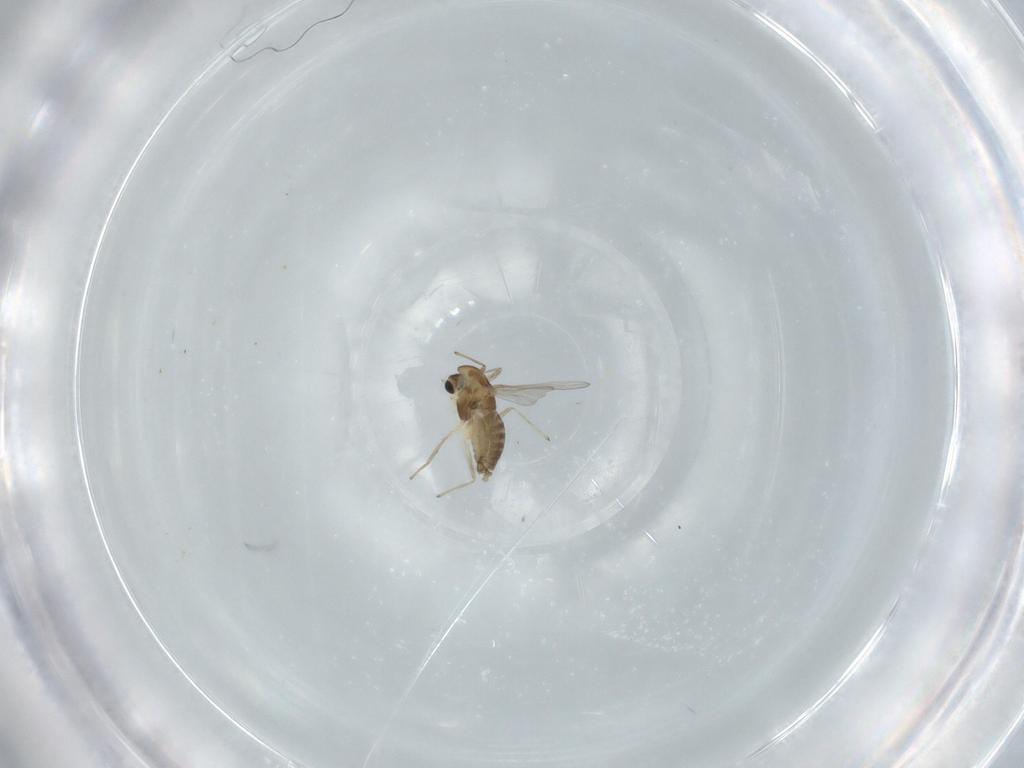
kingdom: Animalia
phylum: Arthropoda
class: Insecta
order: Diptera
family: Chironomidae
